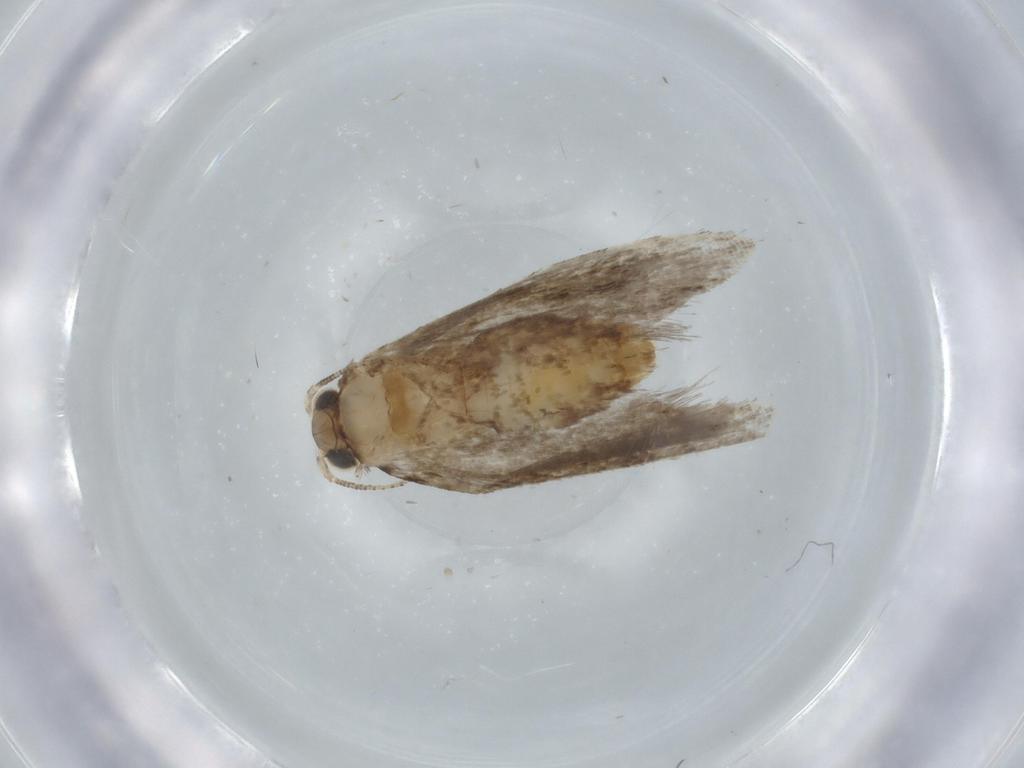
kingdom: Animalia
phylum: Arthropoda
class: Insecta
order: Lepidoptera
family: Tineidae
